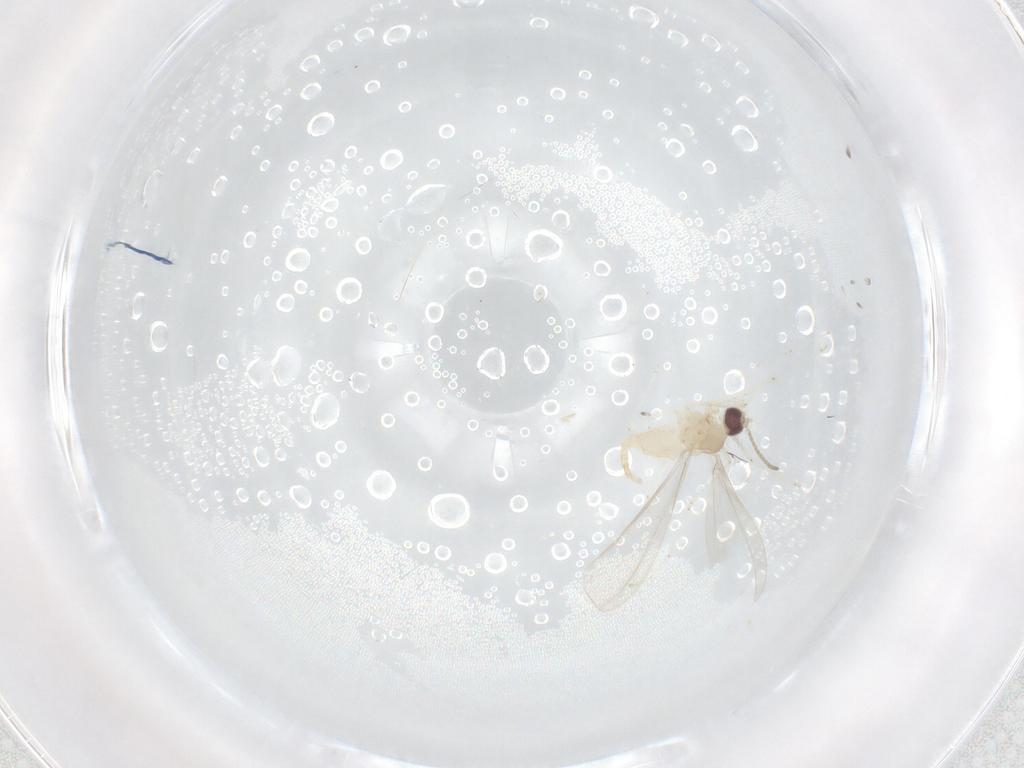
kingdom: Animalia
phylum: Arthropoda
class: Insecta
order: Diptera
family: Cecidomyiidae
